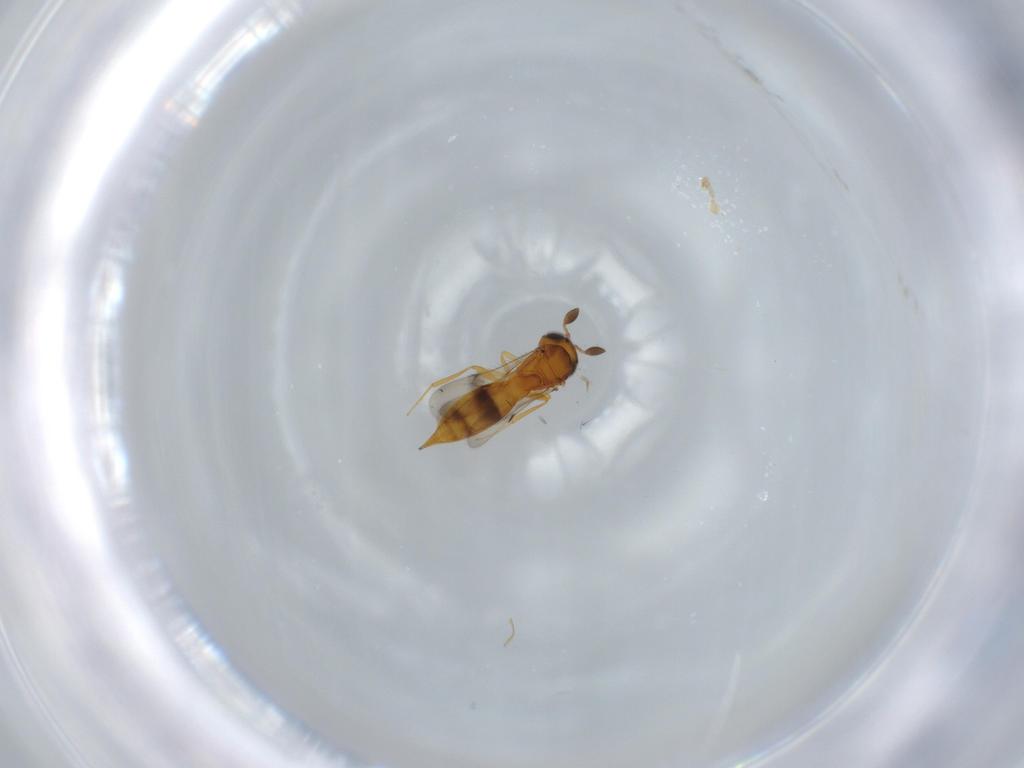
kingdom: Animalia
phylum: Arthropoda
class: Insecta
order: Hymenoptera
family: Scelionidae
